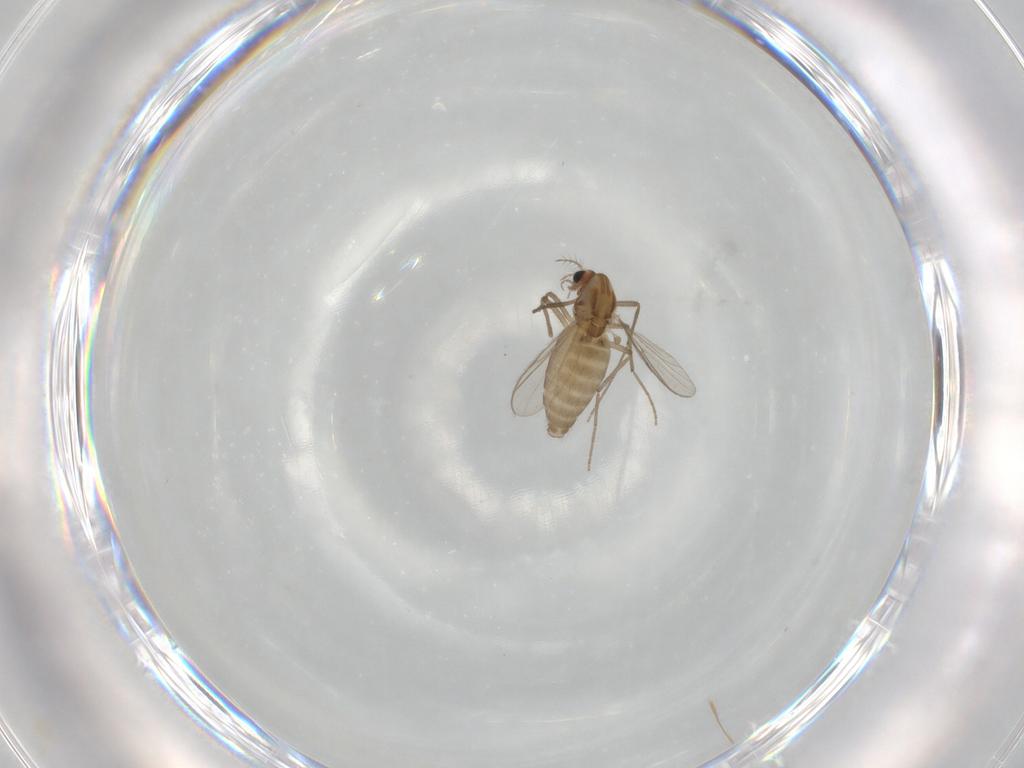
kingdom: Animalia
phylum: Arthropoda
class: Insecta
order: Diptera
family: Chironomidae
